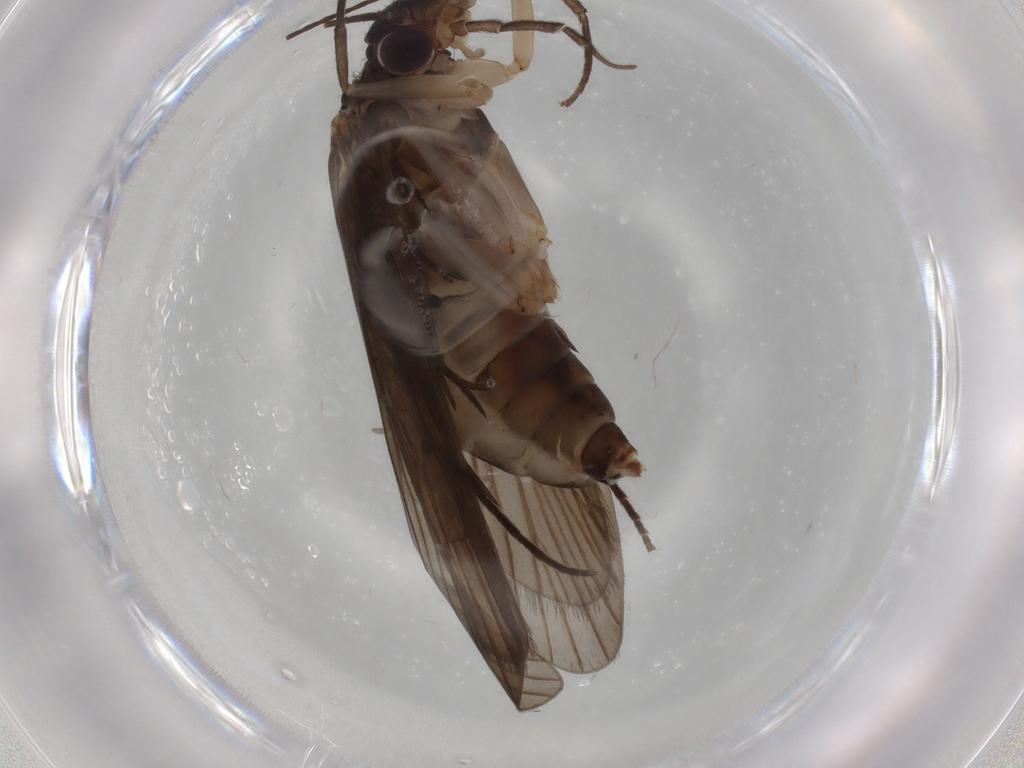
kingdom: Animalia
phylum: Arthropoda
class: Insecta
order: Trichoptera
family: Philopotamidae
